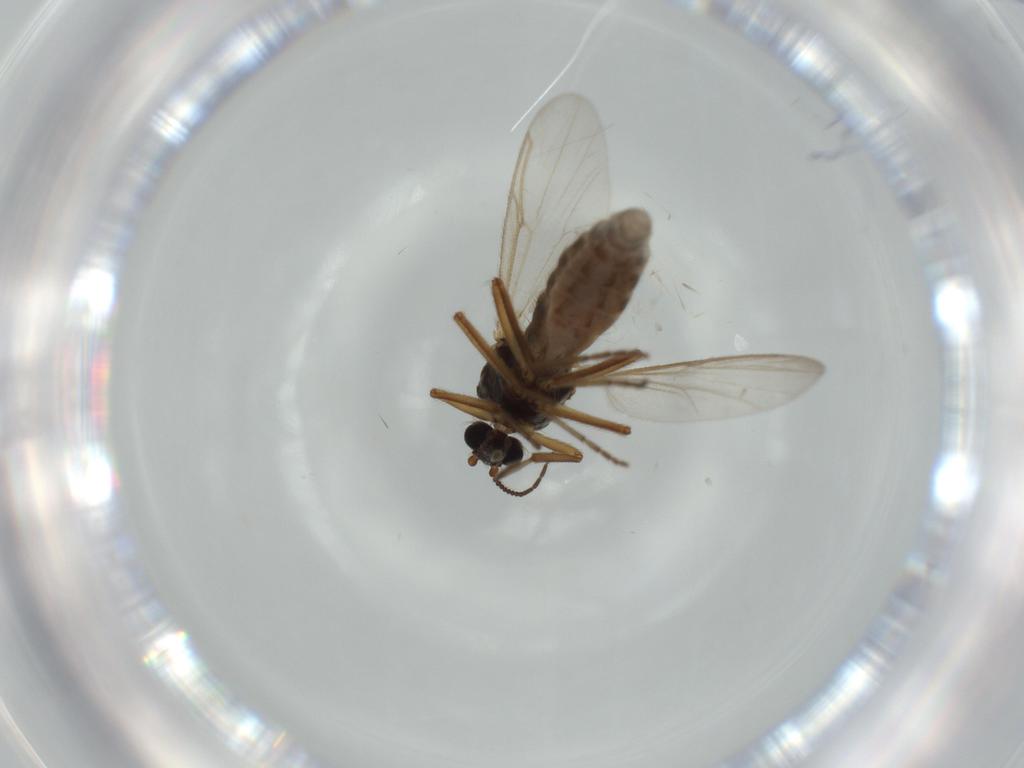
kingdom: Animalia
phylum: Arthropoda
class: Insecta
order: Diptera
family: Ceratopogonidae
